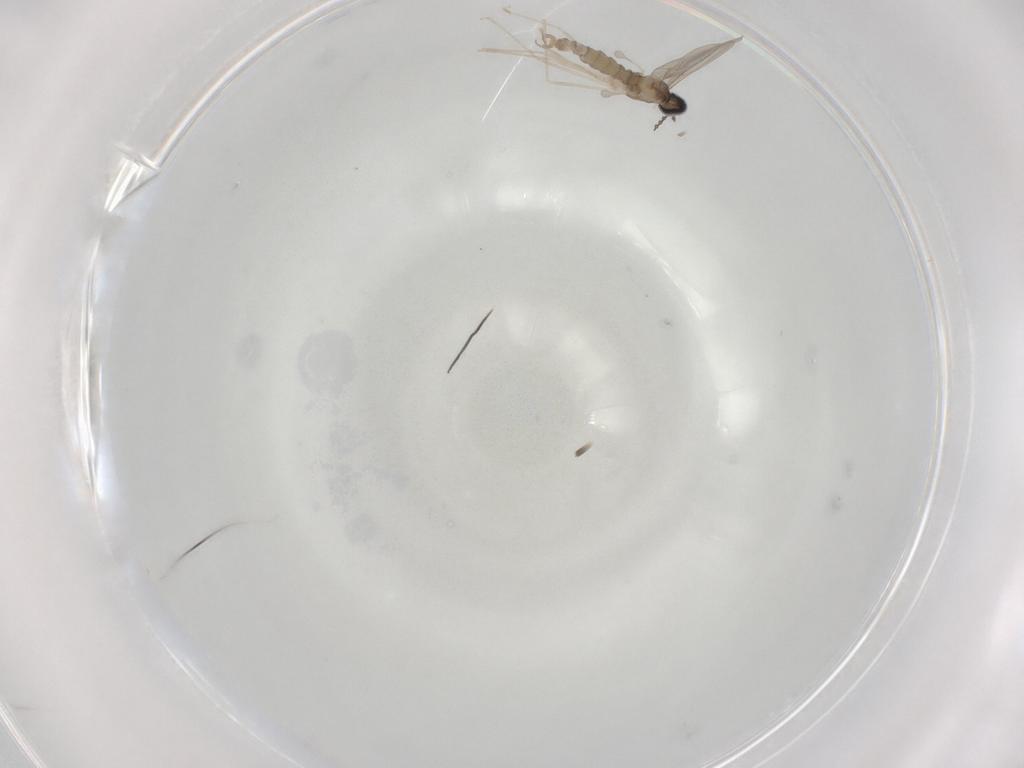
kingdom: Animalia
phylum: Arthropoda
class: Insecta
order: Diptera
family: Cecidomyiidae
